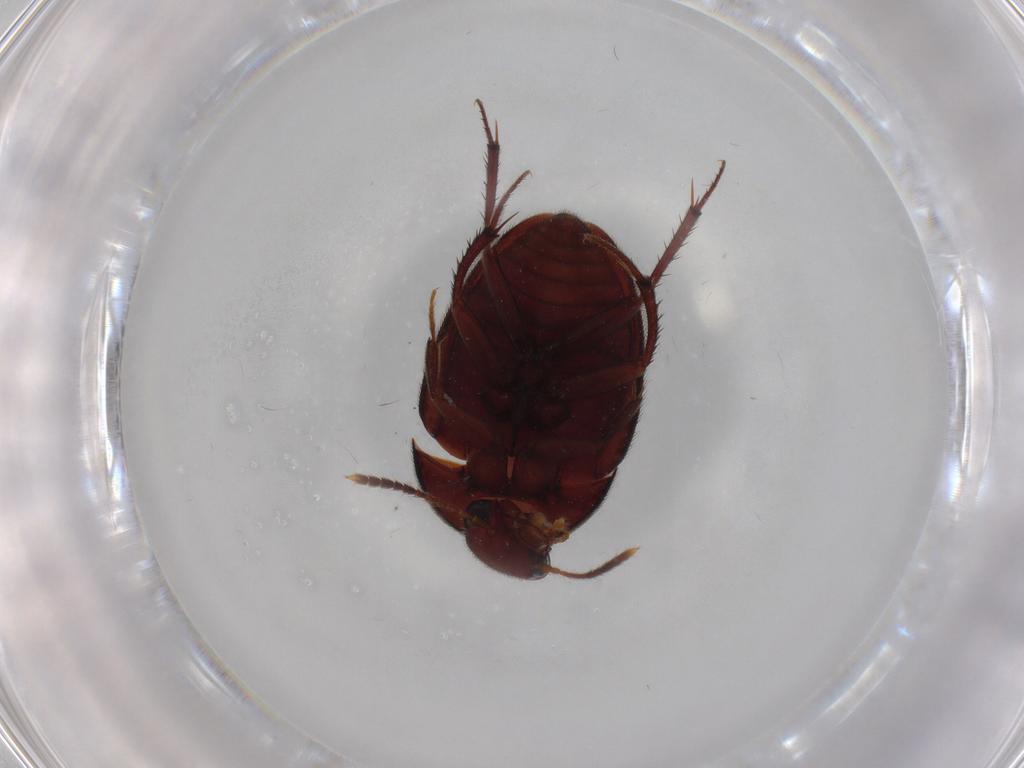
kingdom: Animalia
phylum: Arthropoda
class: Insecta
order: Coleoptera
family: Leiodidae
